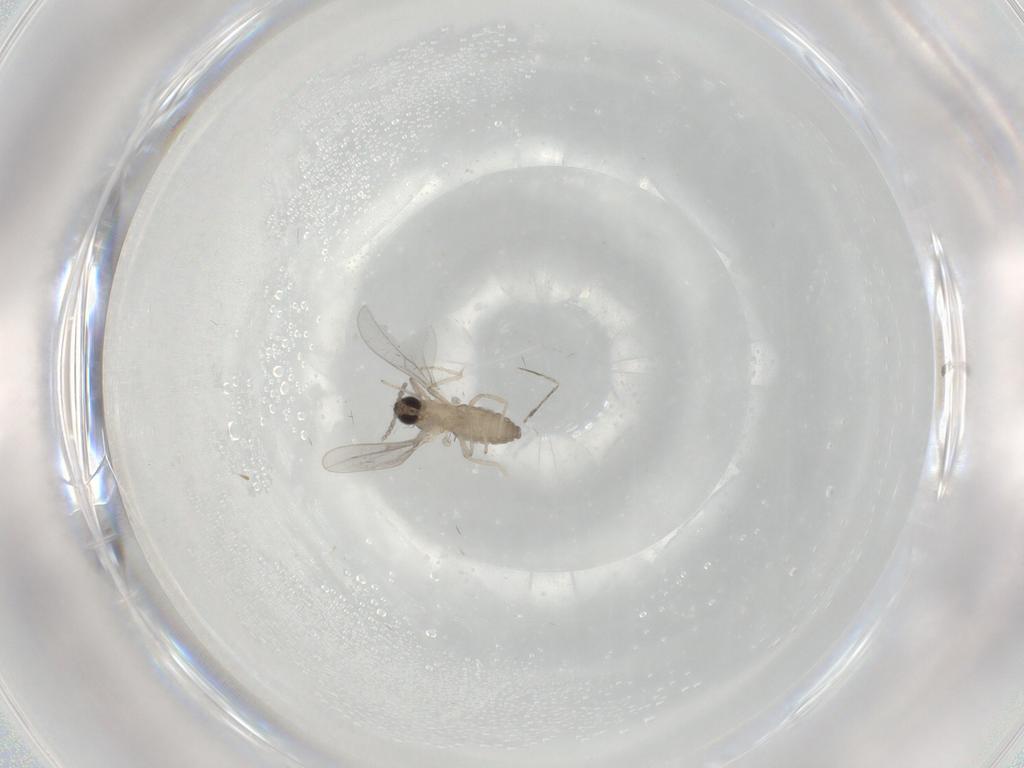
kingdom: Animalia
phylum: Arthropoda
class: Insecta
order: Diptera
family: Cecidomyiidae
